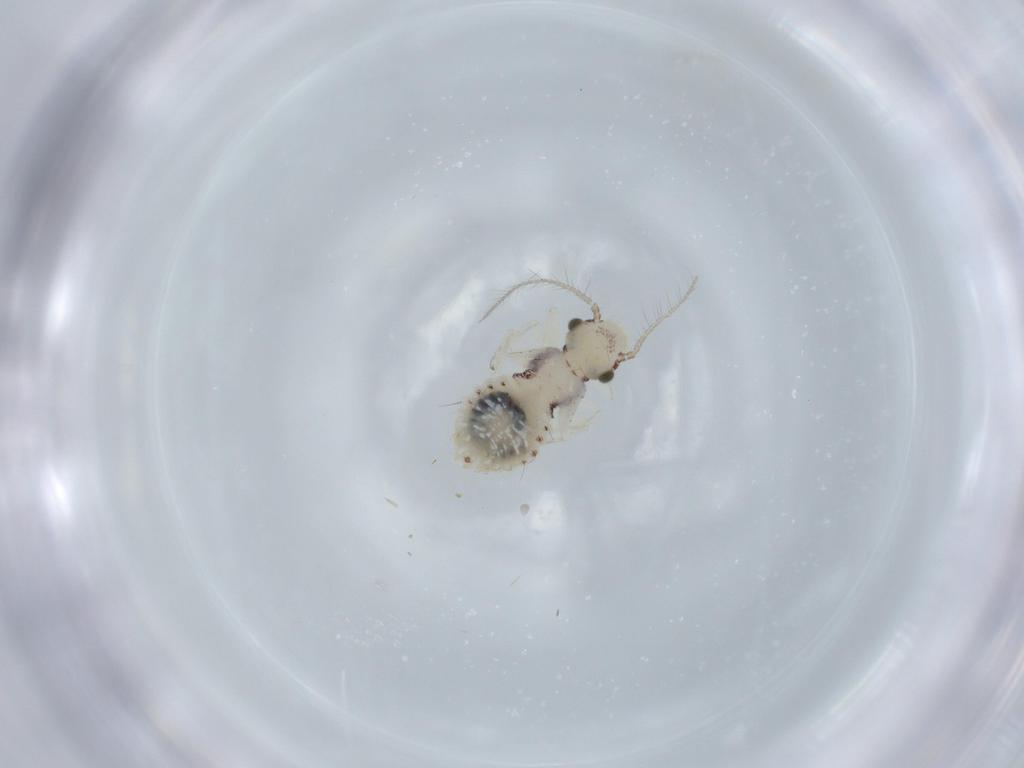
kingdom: Animalia
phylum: Arthropoda
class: Insecta
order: Psocodea
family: Pseudocaeciliidae
